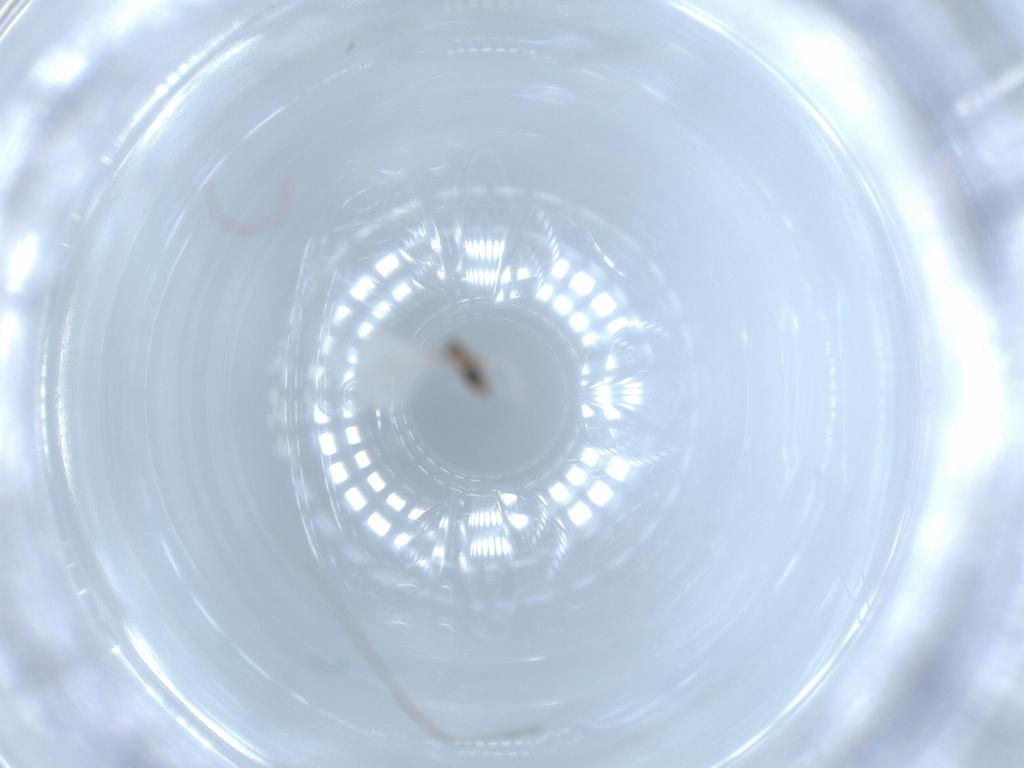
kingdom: Animalia
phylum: Arthropoda
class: Insecta
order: Diptera
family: Cecidomyiidae
